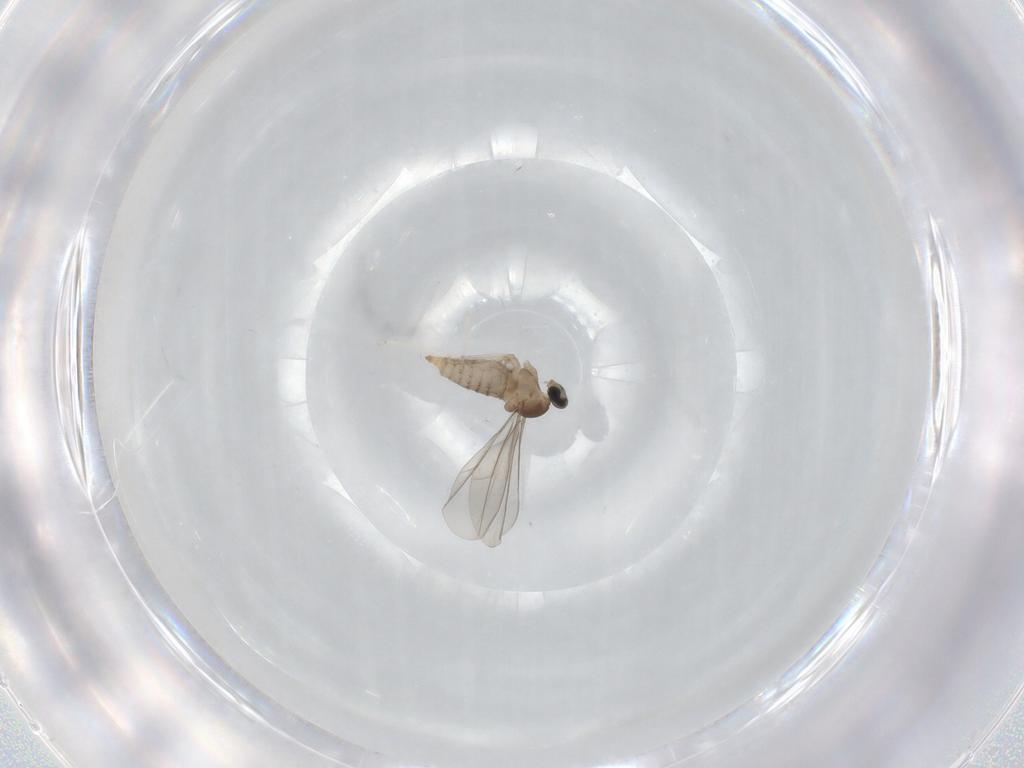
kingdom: Animalia
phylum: Arthropoda
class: Insecta
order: Diptera
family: Cecidomyiidae
